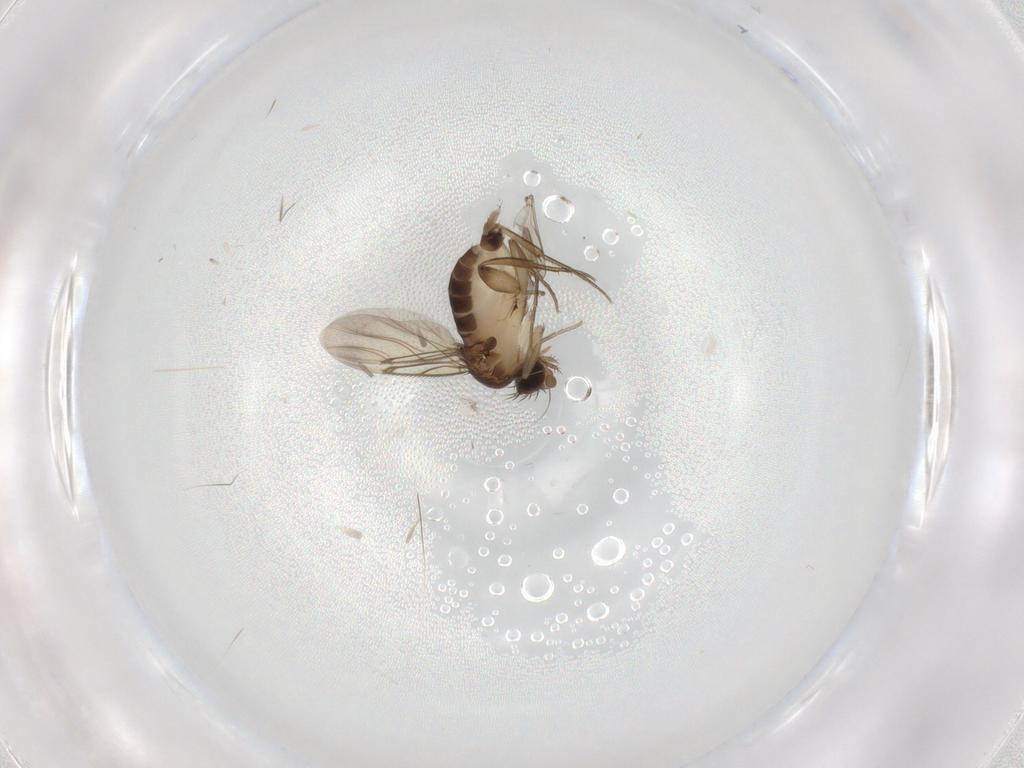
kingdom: Animalia
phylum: Arthropoda
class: Insecta
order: Diptera
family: Phoridae
